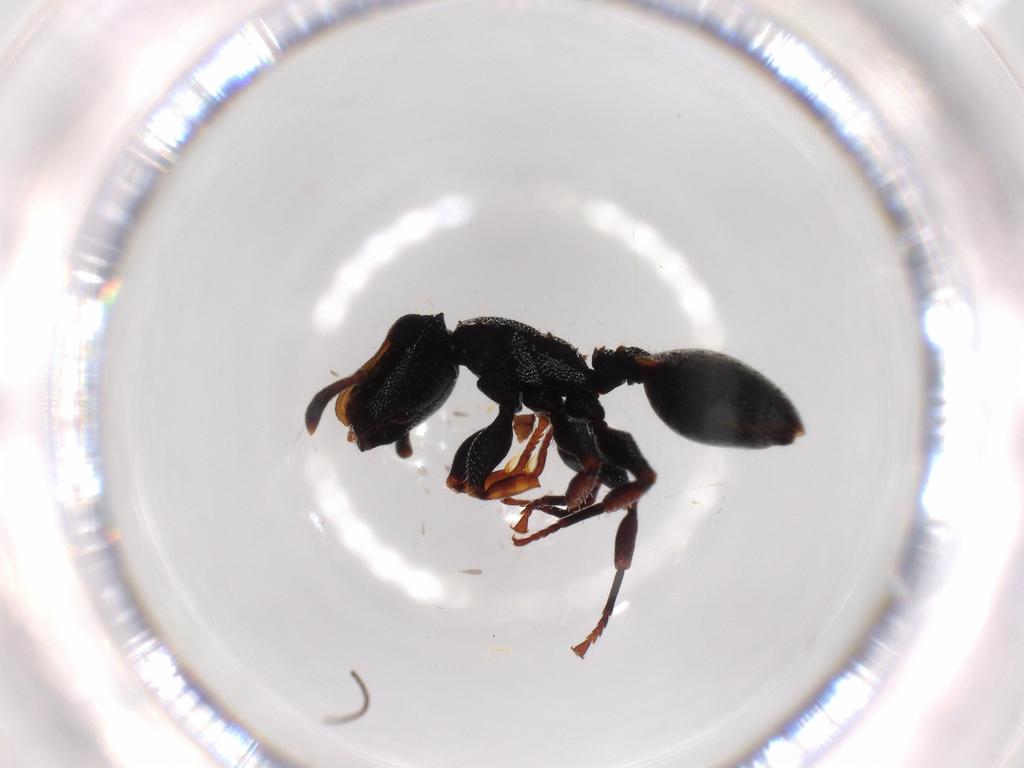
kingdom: Animalia
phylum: Arthropoda
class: Insecta
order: Hymenoptera
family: Formicidae
